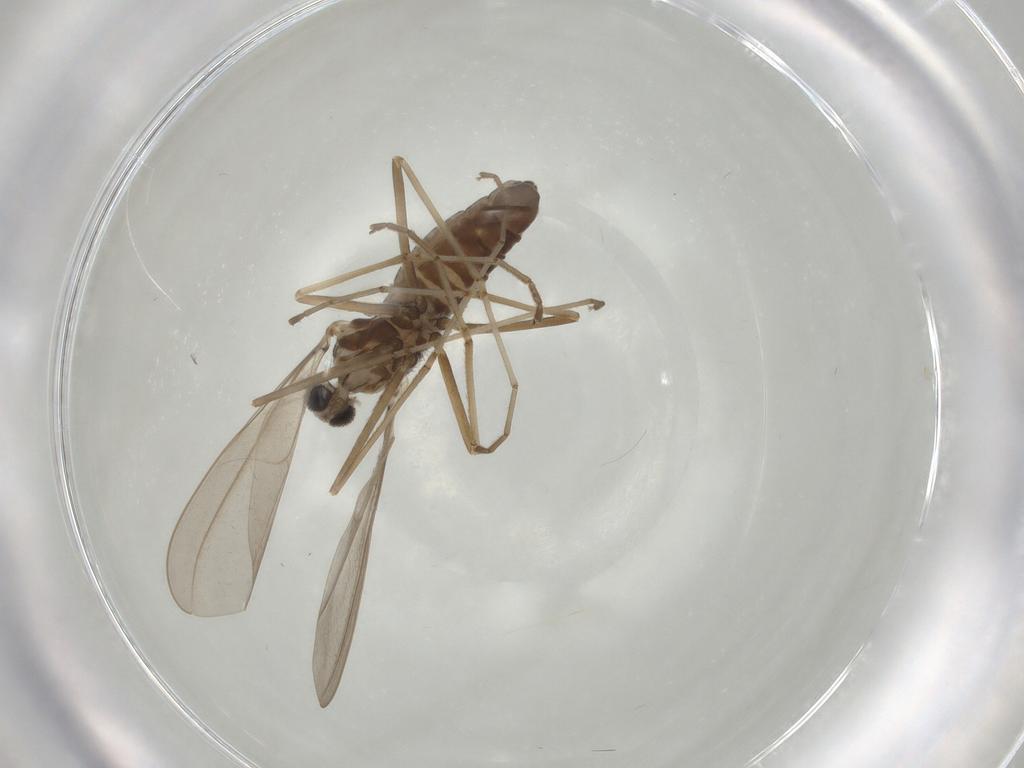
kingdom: Animalia
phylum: Arthropoda
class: Insecta
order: Diptera
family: Cecidomyiidae
